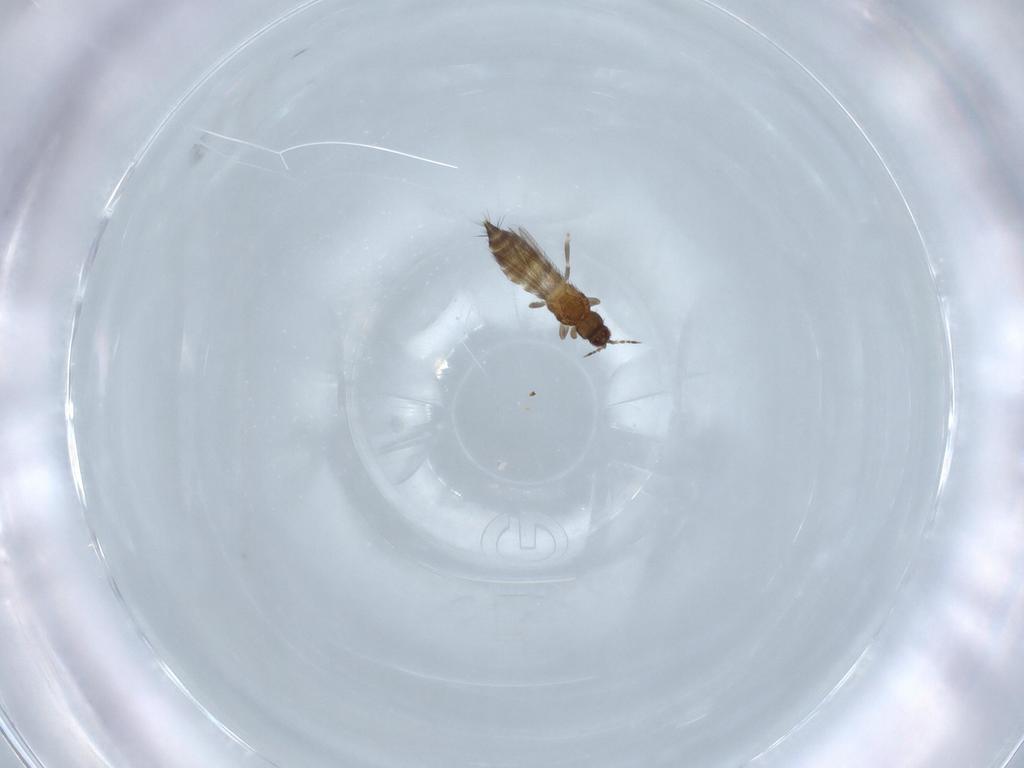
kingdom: Animalia
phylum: Arthropoda
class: Insecta
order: Thysanoptera
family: Thripidae
